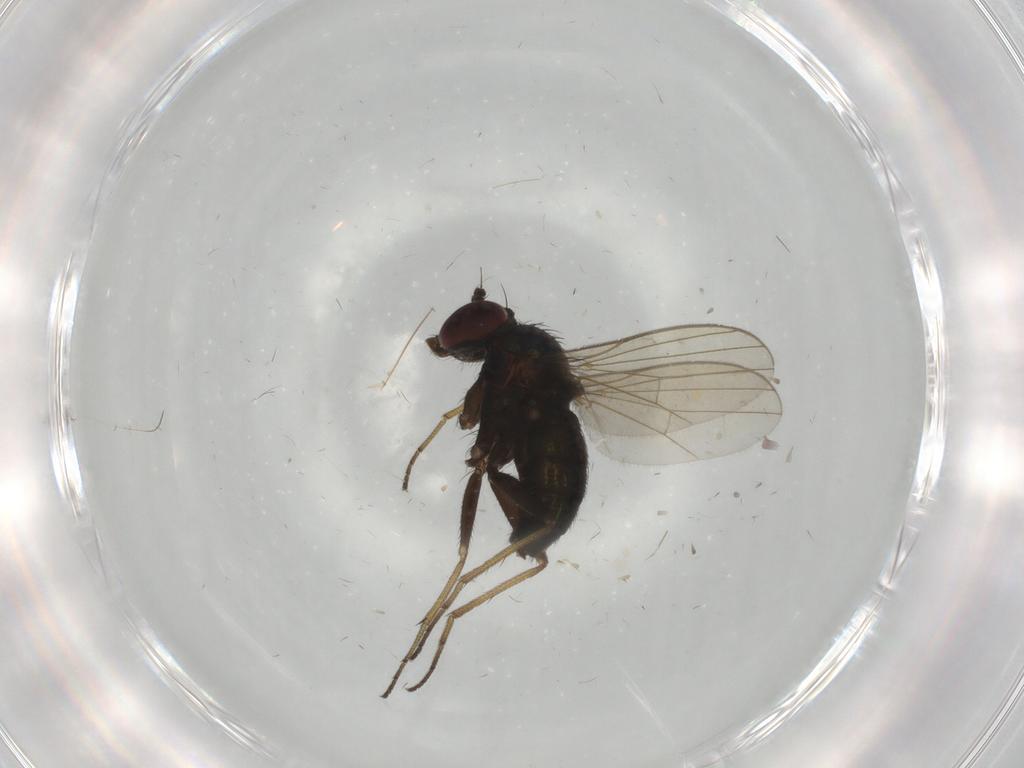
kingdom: Animalia
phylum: Arthropoda
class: Insecta
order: Diptera
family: Dolichopodidae
